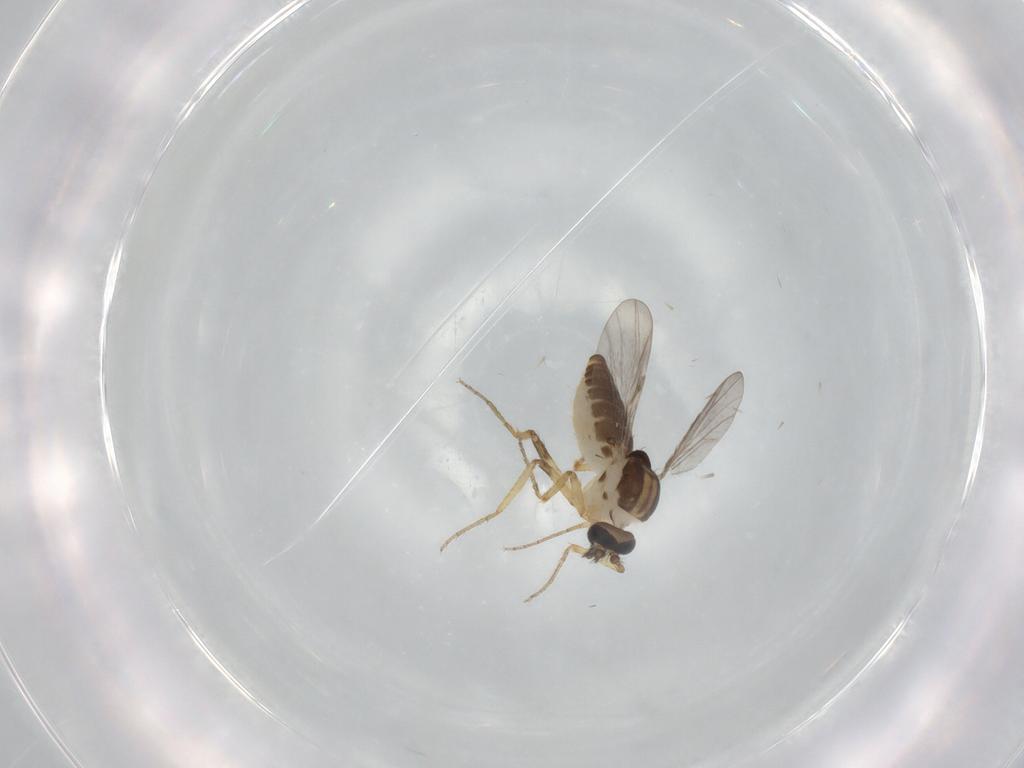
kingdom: Animalia
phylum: Arthropoda
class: Insecta
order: Diptera
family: Ceratopogonidae
